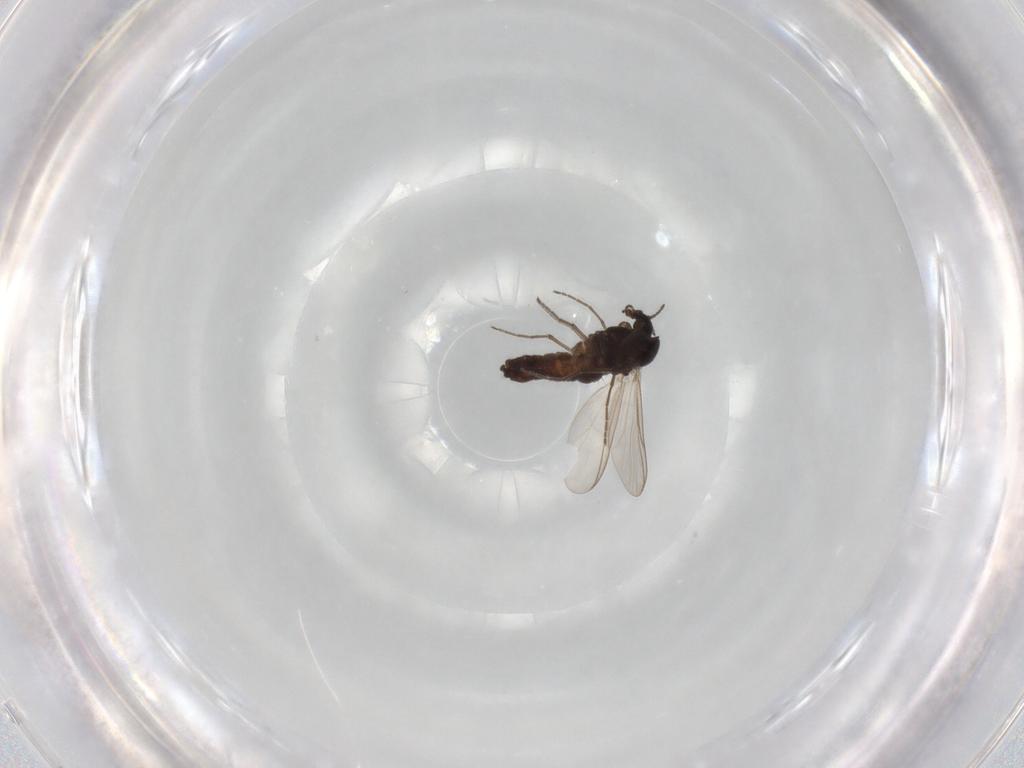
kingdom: Animalia
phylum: Arthropoda
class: Insecta
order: Diptera
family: Chironomidae
